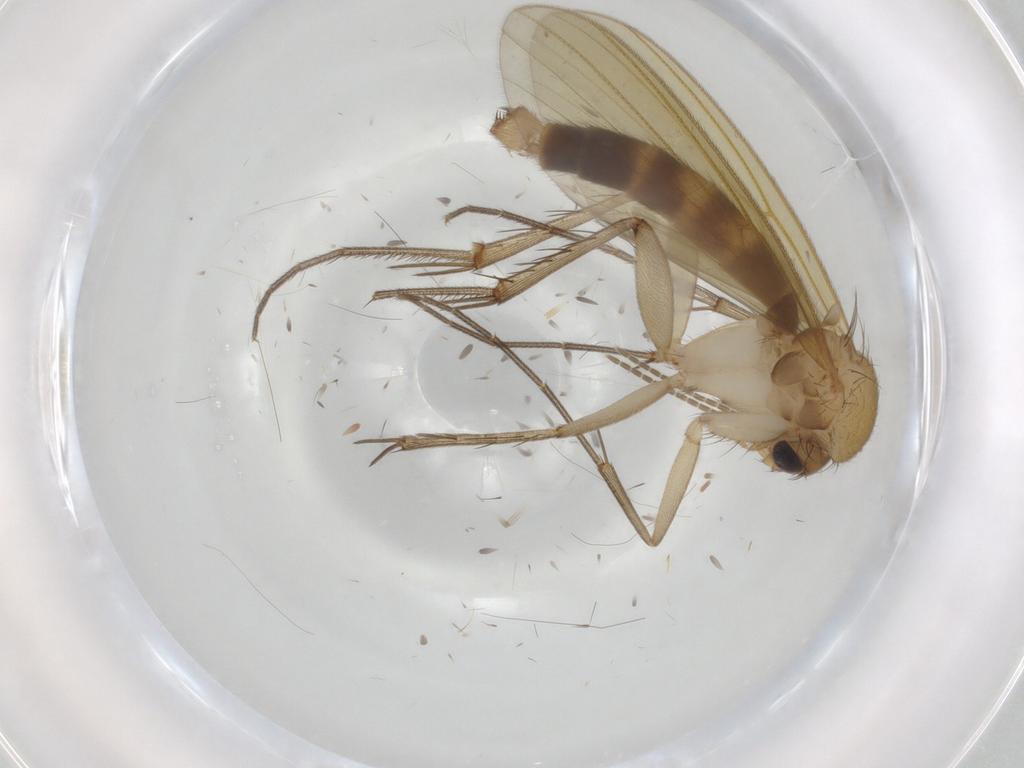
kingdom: Animalia
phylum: Arthropoda
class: Insecta
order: Diptera
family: Mycetophilidae
